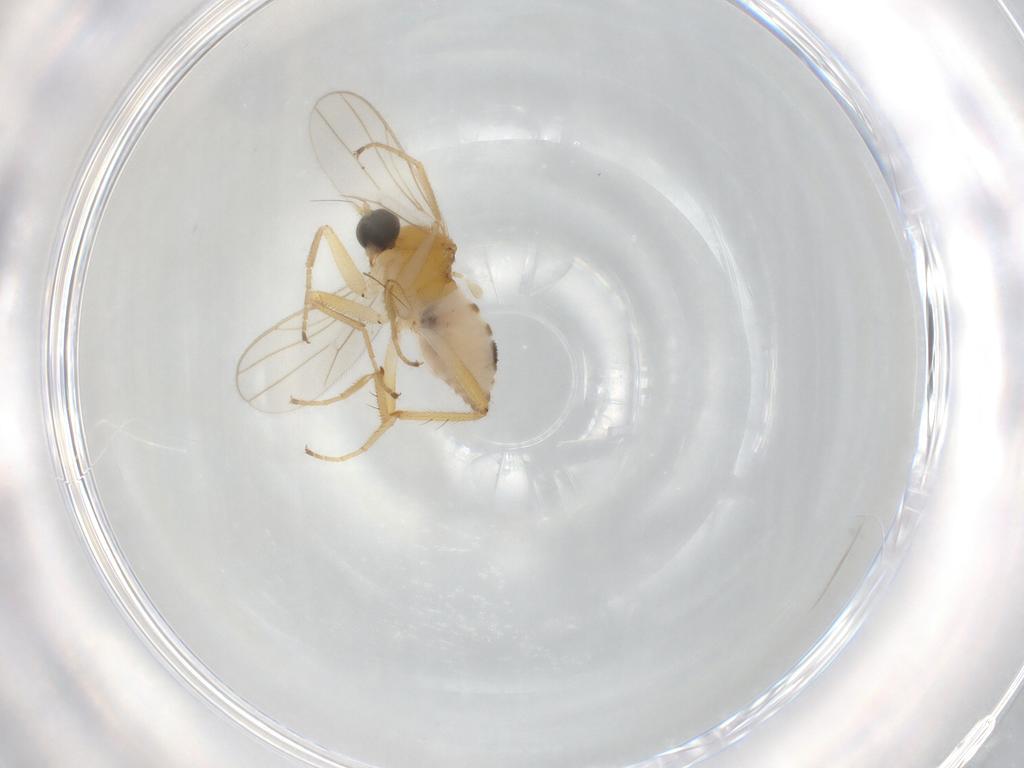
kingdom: Animalia
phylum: Arthropoda
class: Insecta
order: Diptera
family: Hybotidae
